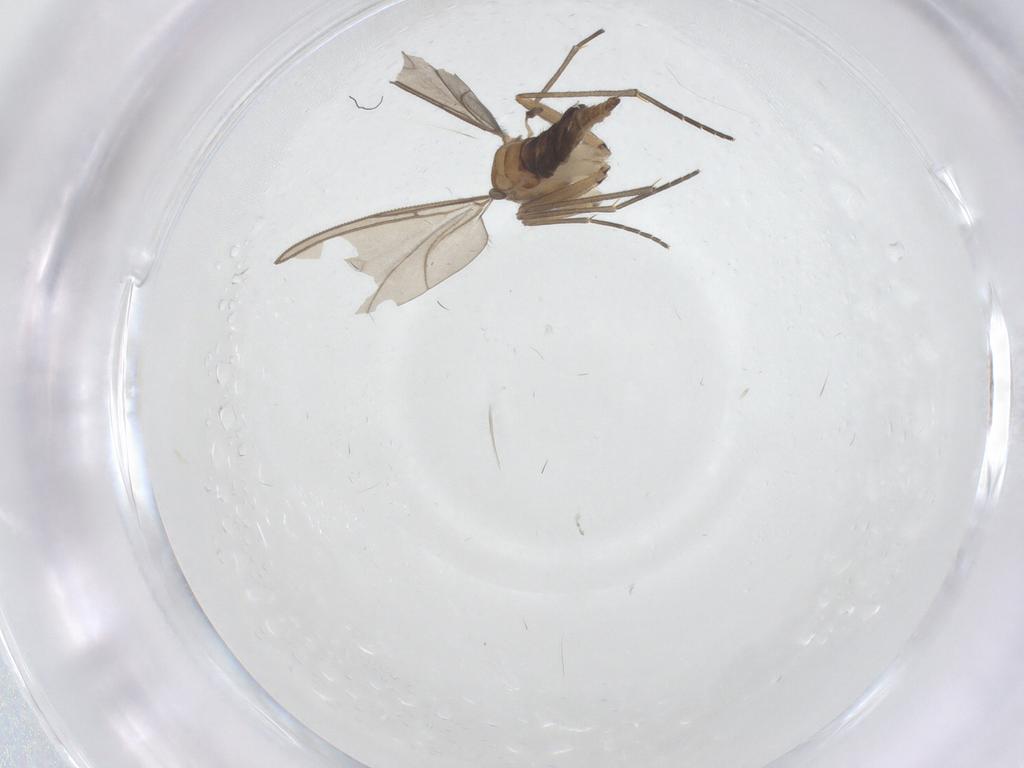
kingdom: Animalia
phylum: Arthropoda
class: Insecta
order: Diptera
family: Sciaridae
